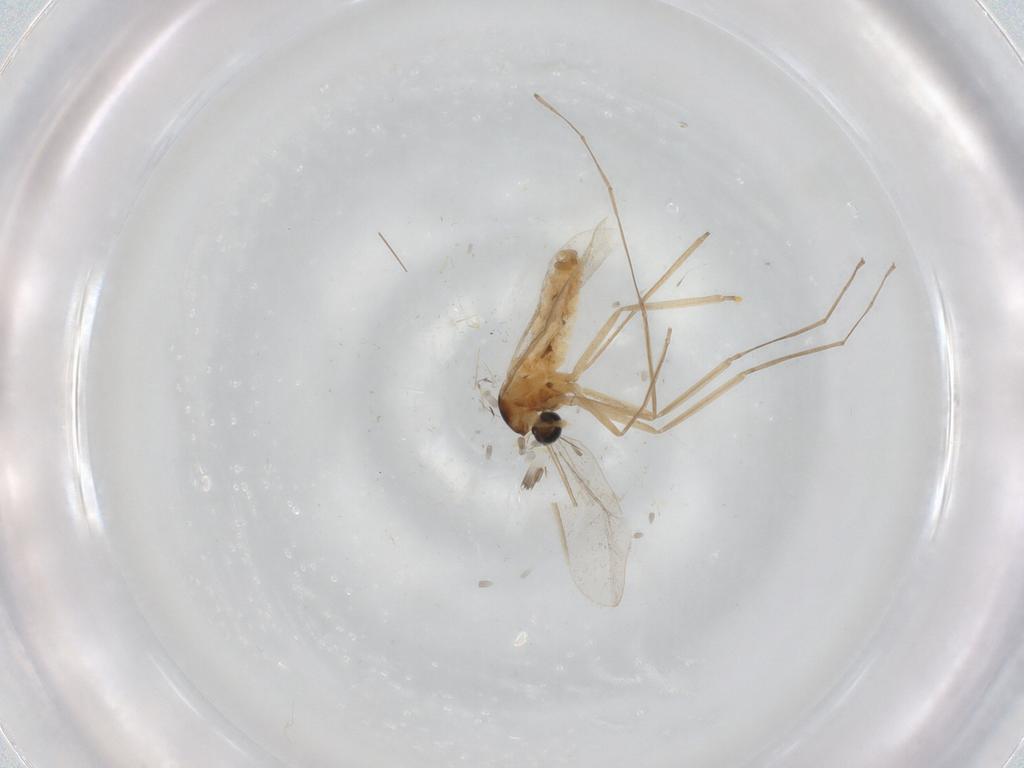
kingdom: Animalia
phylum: Arthropoda
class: Insecta
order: Diptera
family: Cecidomyiidae
